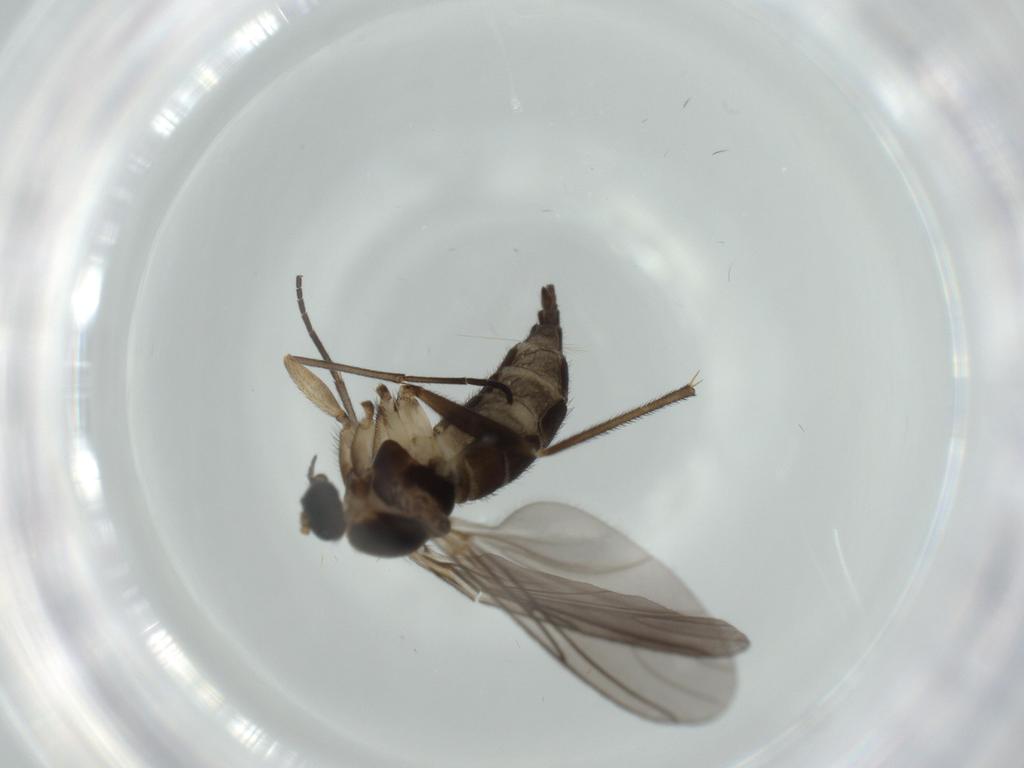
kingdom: Animalia
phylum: Arthropoda
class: Insecta
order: Diptera
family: Sciaridae
